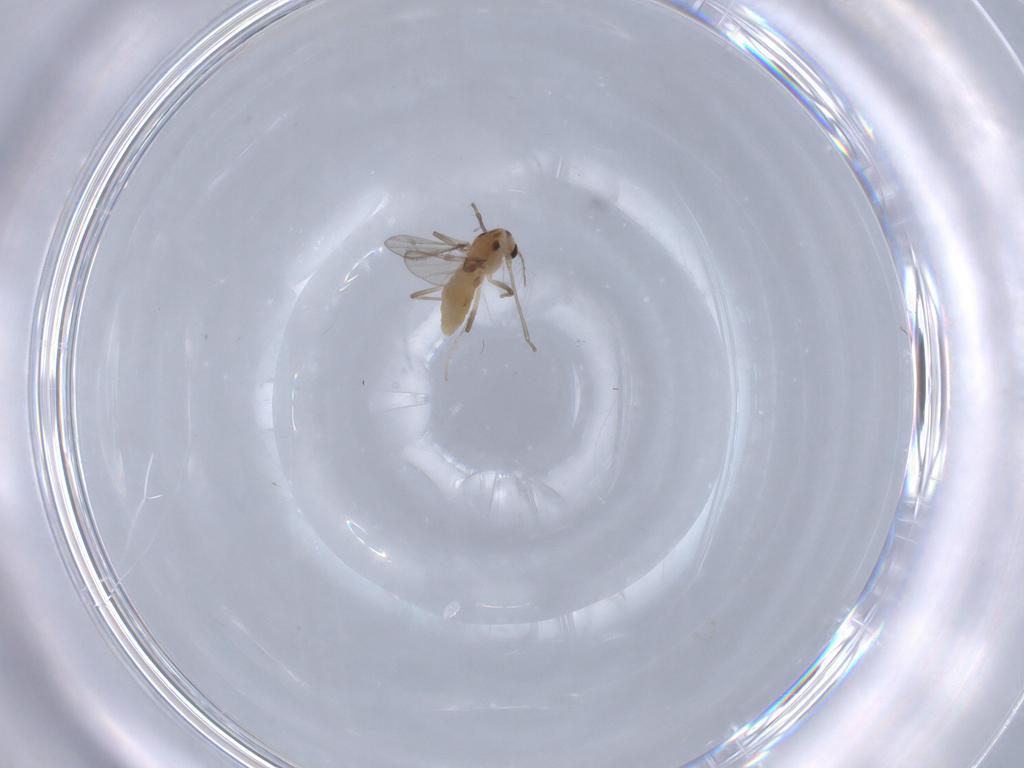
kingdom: Animalia
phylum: Arthropoda
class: Insecta
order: Diptera
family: Chironomidae
